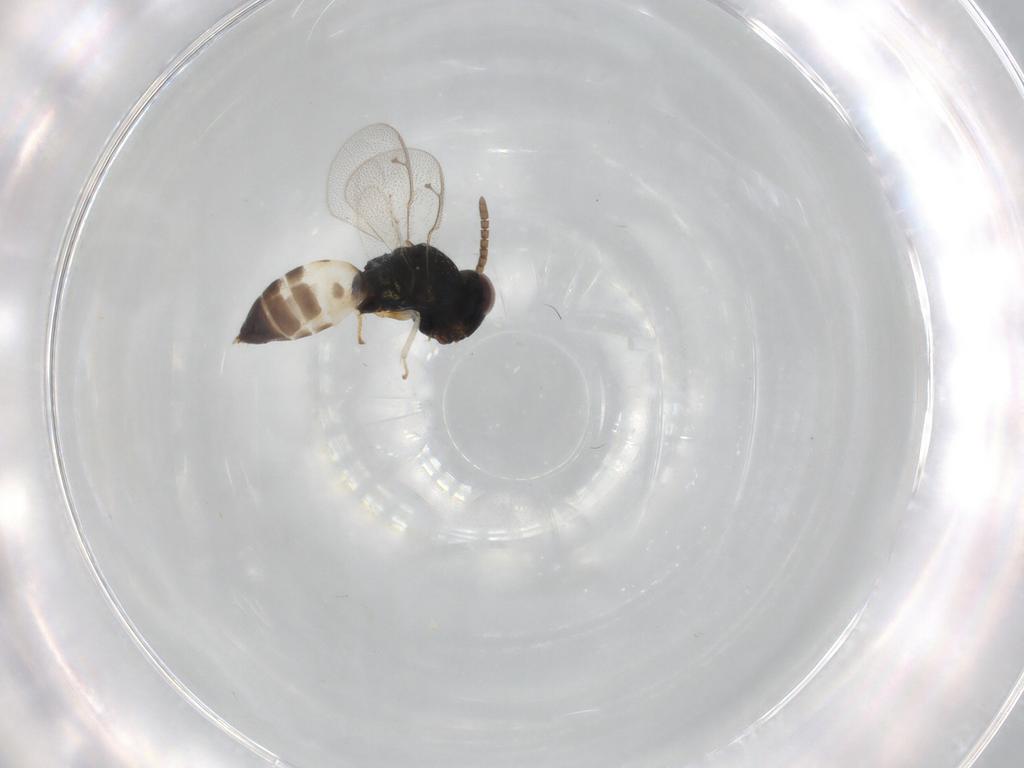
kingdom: Animalia
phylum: Arthropoda
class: Insecta
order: Hymenoptera
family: Pteromalidae
